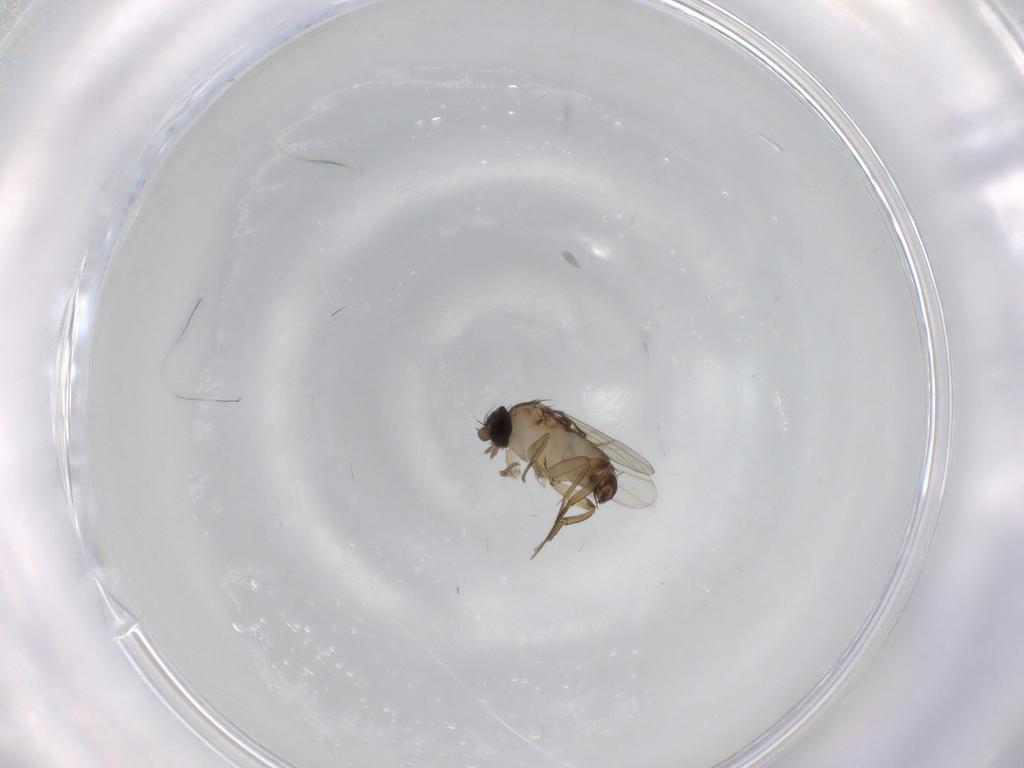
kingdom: Animalia
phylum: Arthropoda
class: Insecta
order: Diptera
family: Phoridae
